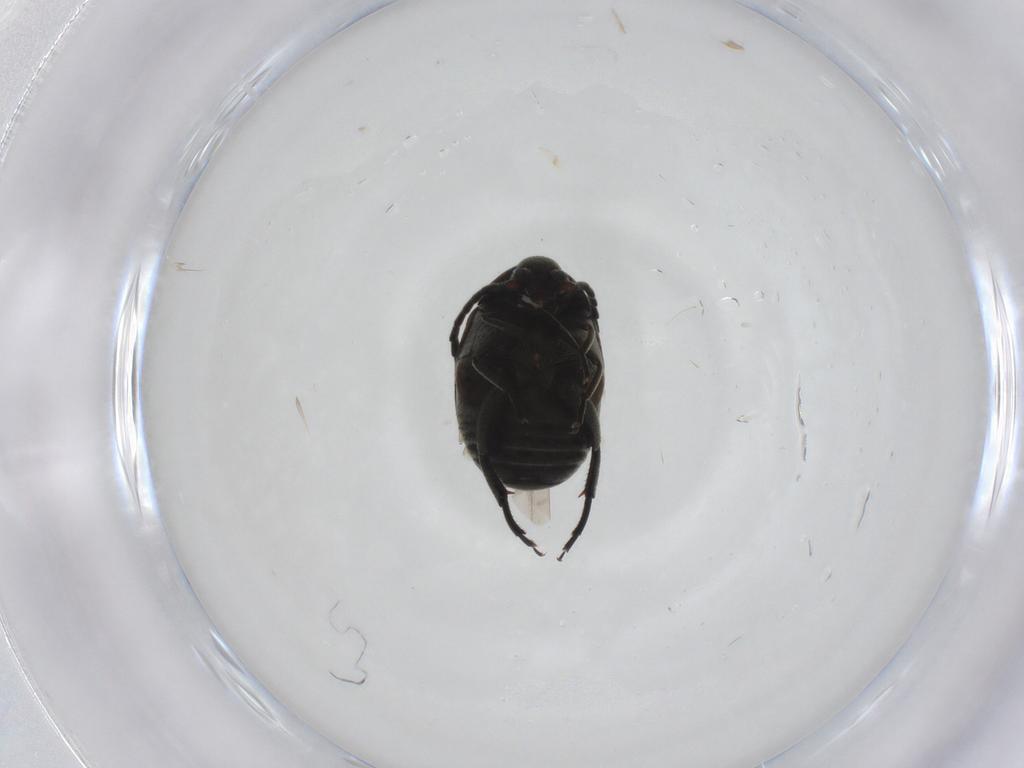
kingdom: Animalia
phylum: Arthropoda
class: Insecta
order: Coleoptera
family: Chrysomelidae
